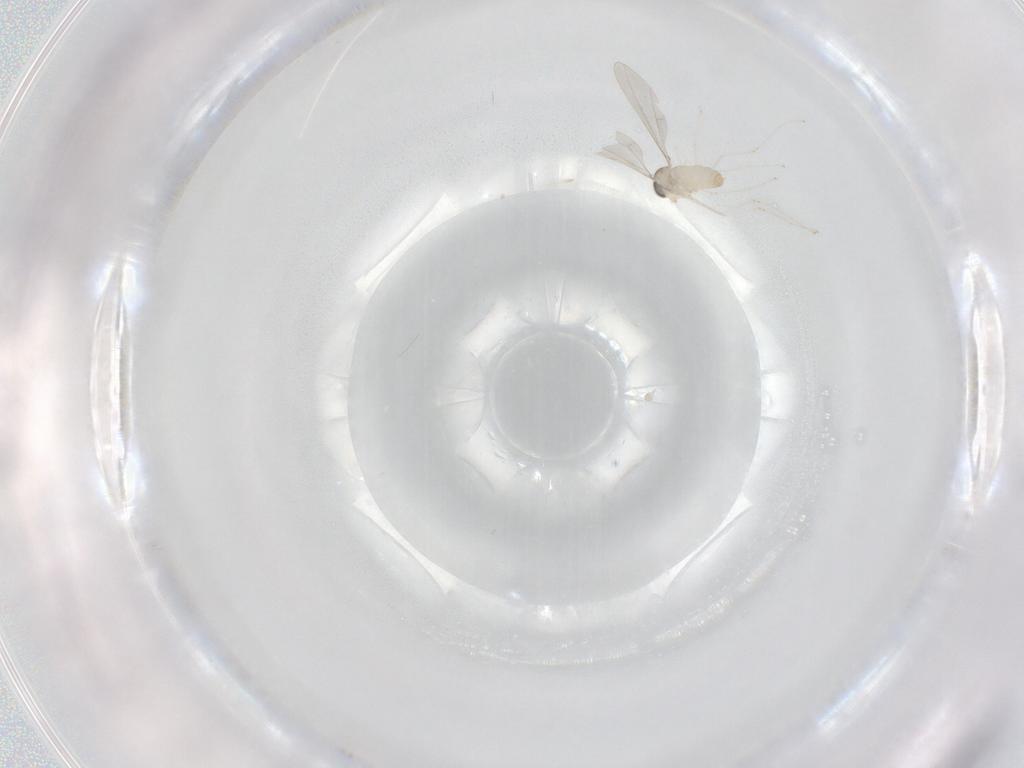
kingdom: Animalia
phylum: Arthropoda
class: Insecta
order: Diptera
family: Cecidomyiidae
